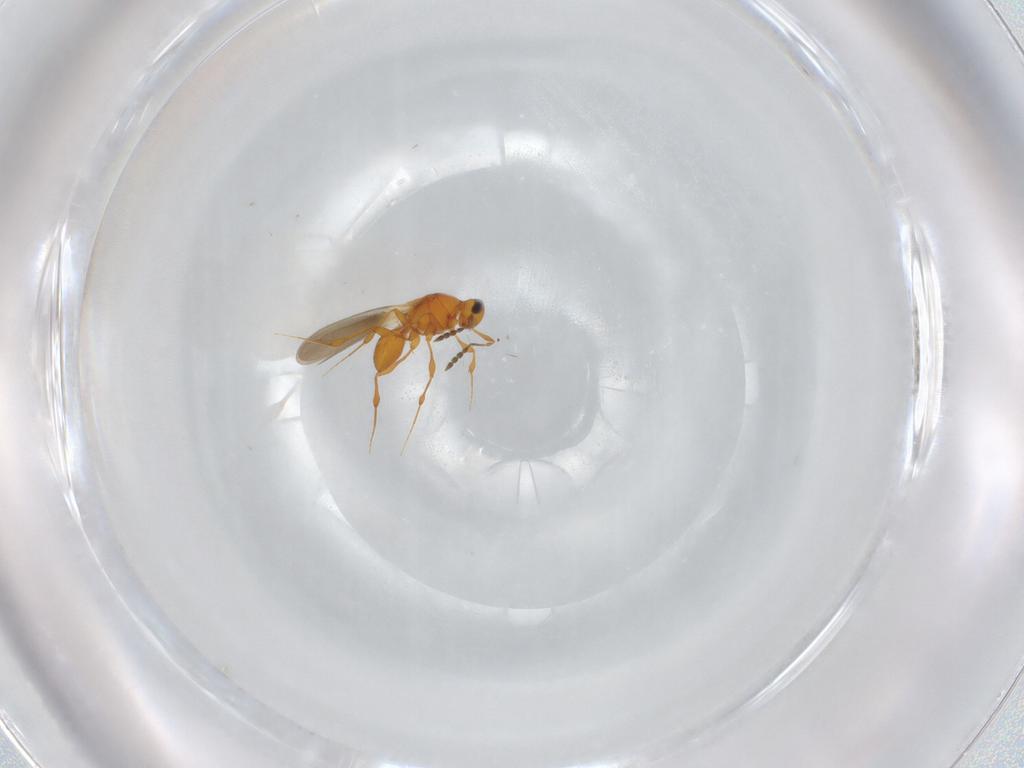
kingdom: Animalia
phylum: Arthropoda
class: Insecta
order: Hymenoptera
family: Platygastridae
